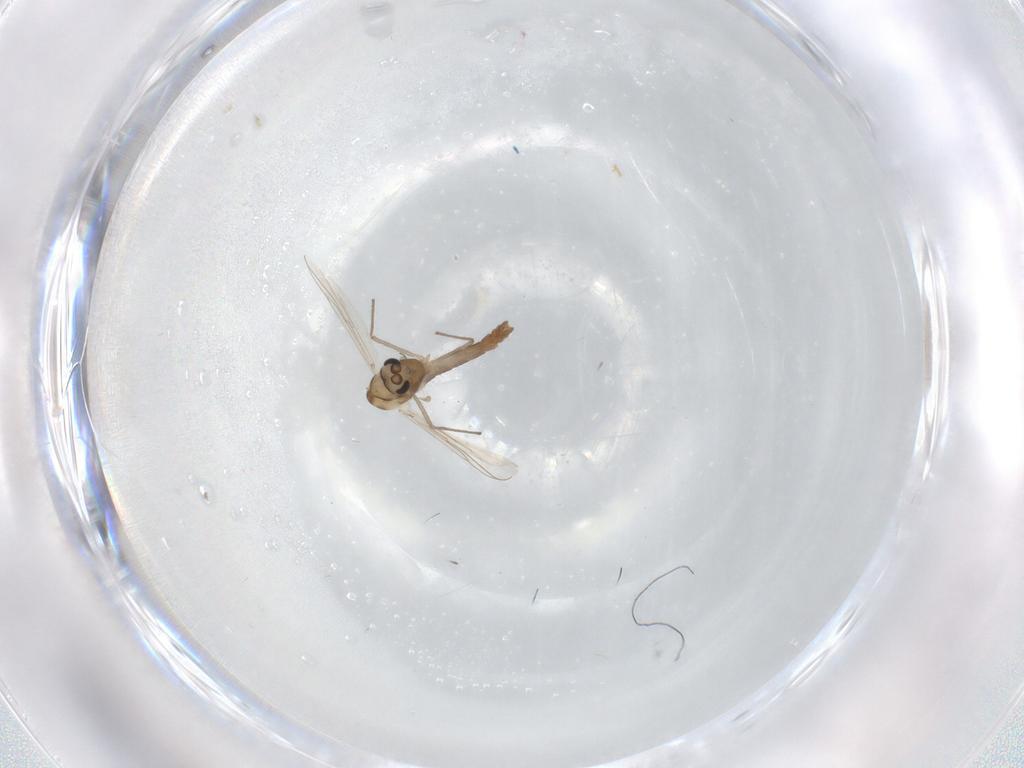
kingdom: Animalia
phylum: Arthropoda
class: Insecta
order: Diptera
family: Chironomidae
